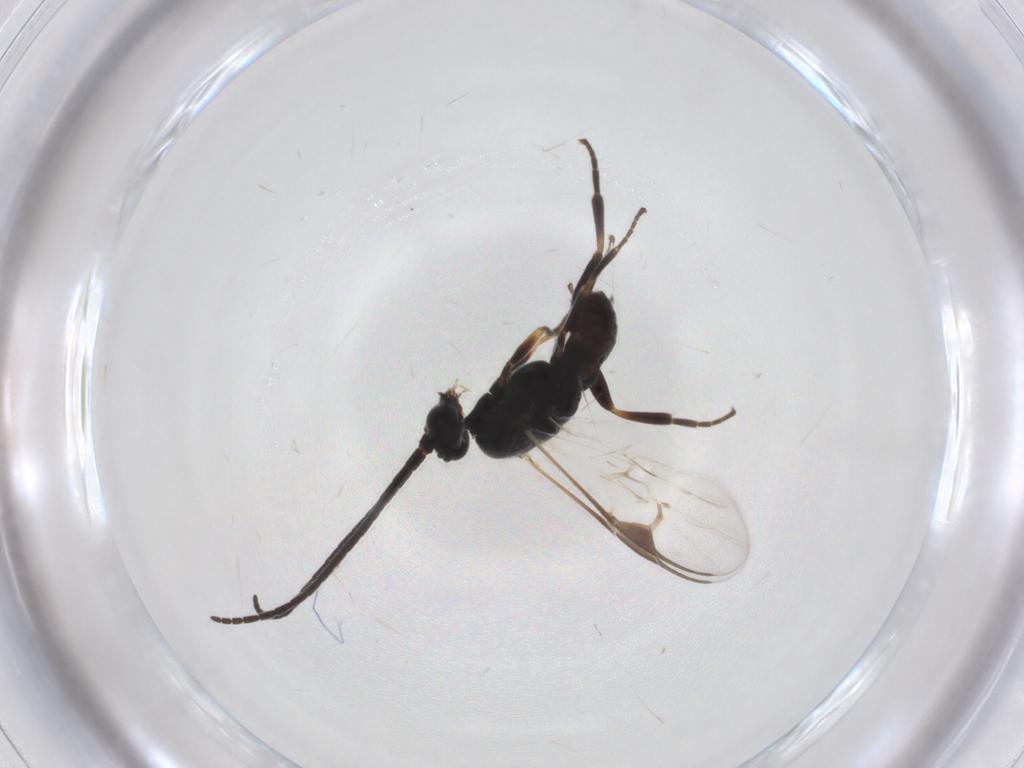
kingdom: Animalia
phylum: Arthropoda
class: Insecta
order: Hymenoptera
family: Braconidae
